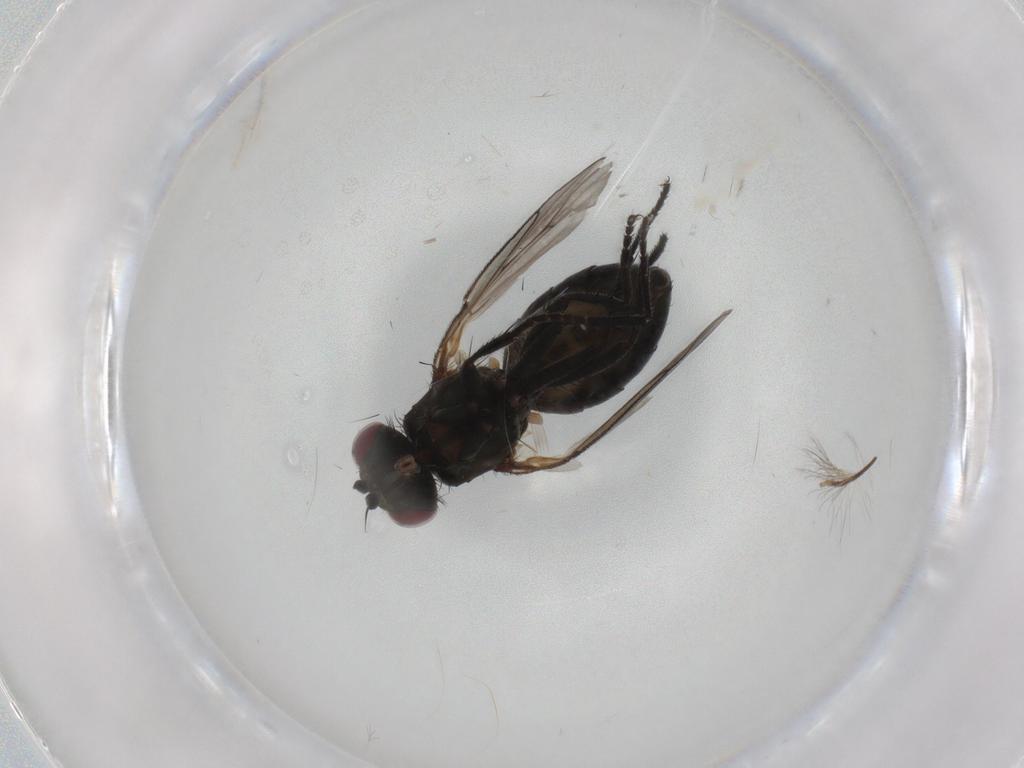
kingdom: Animalia
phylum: Arthropoda
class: Insecta
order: Diptera
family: Muscidae
